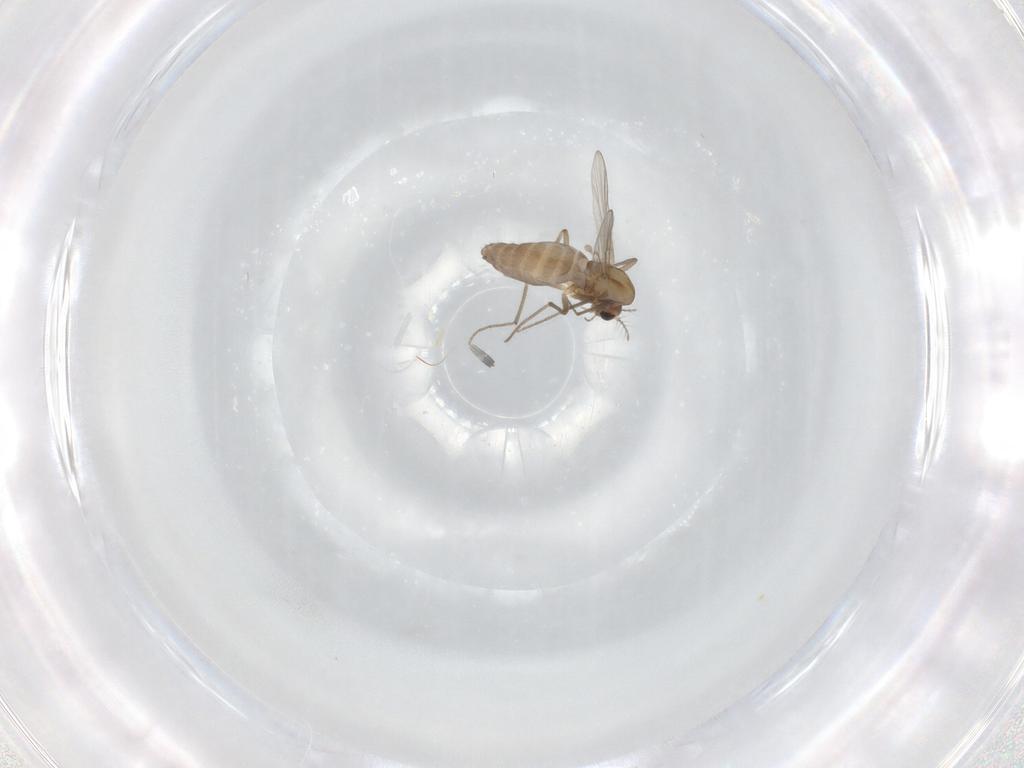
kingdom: Animalia
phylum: Arthropoda
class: Insecta
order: Diptera
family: Chironomidae
